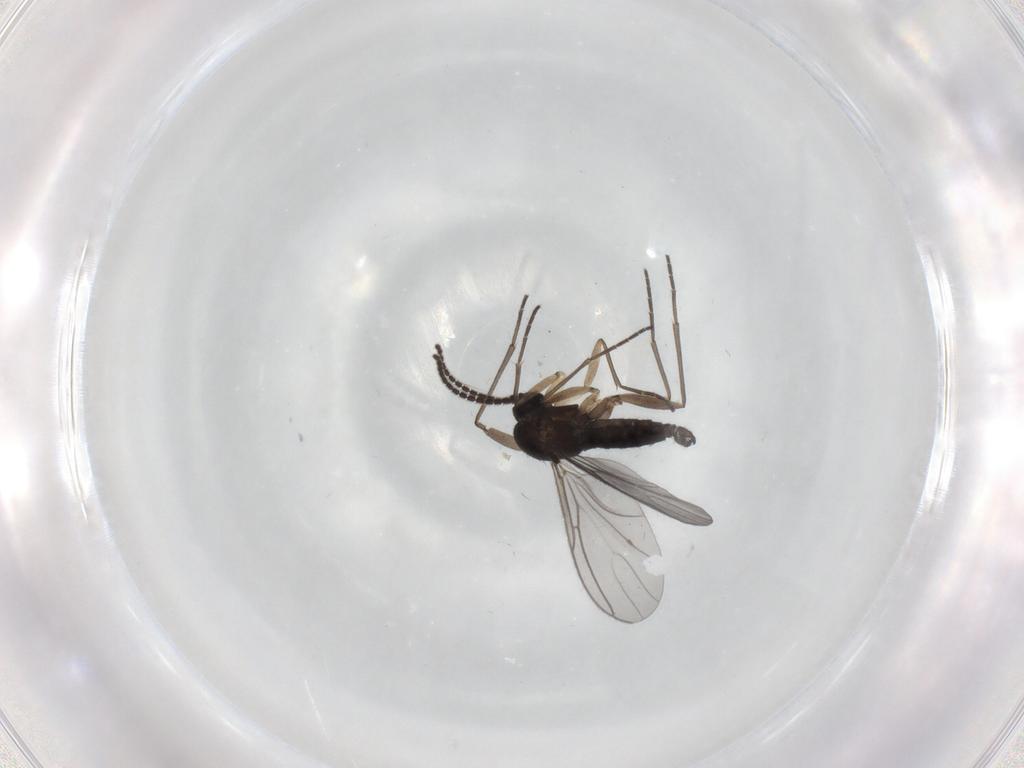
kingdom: Animalia
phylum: Arthropoda
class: Insecta
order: Diptera
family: Sciaridae
